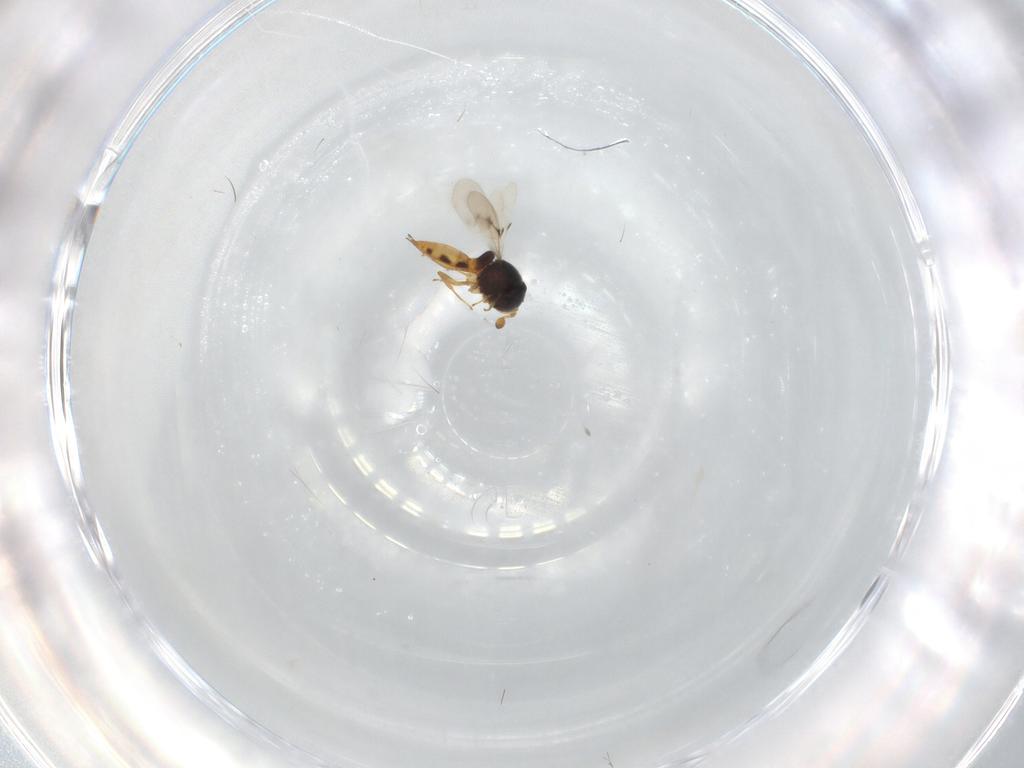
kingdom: Animalia
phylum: Arthropoda
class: Insecta
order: Hymenoptera
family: Scelionidae
